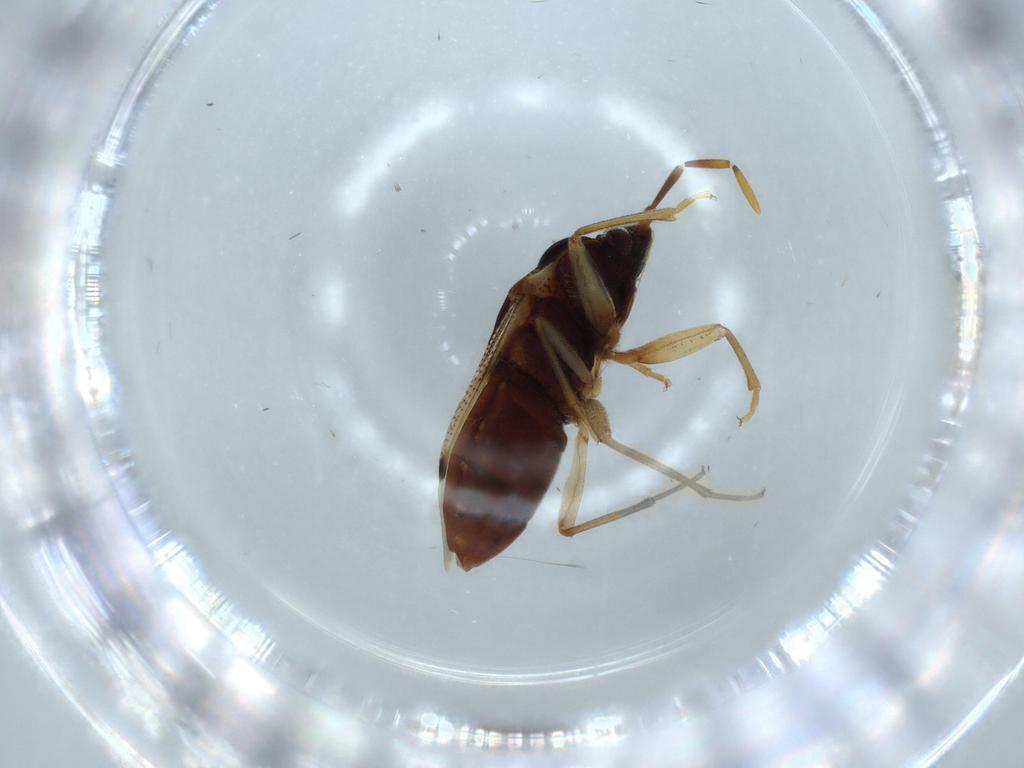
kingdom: Animalia
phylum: Arthropoda
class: Insecta
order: Hemiptera
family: Rhyparochromidae
